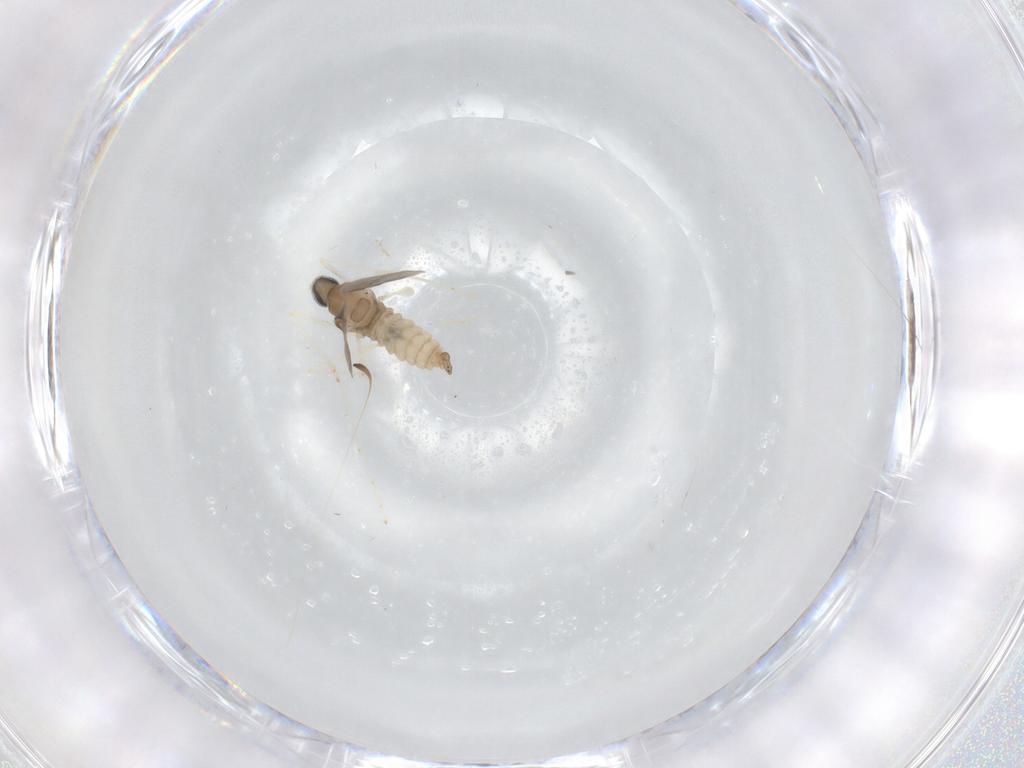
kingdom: Animalia
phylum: Arthropoda
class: Insecta
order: Diptera
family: Cecidomyiidae
